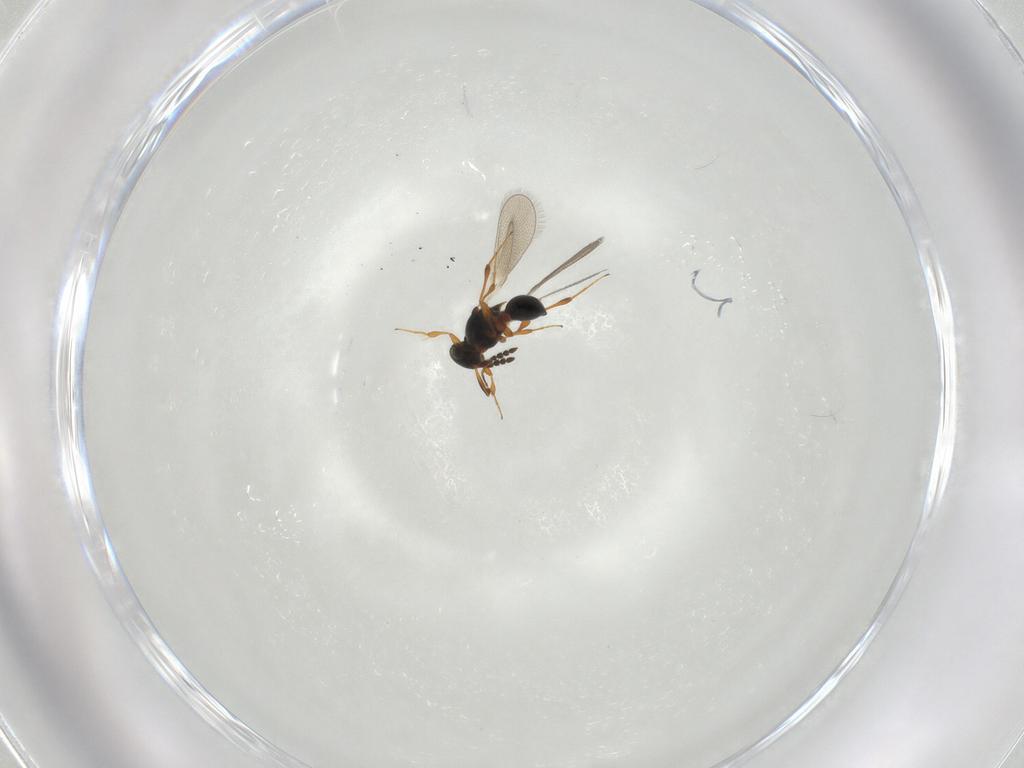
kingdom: Animalia
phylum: Arthropoda
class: Insecta
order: Hymenoptera
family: Platygastridae
